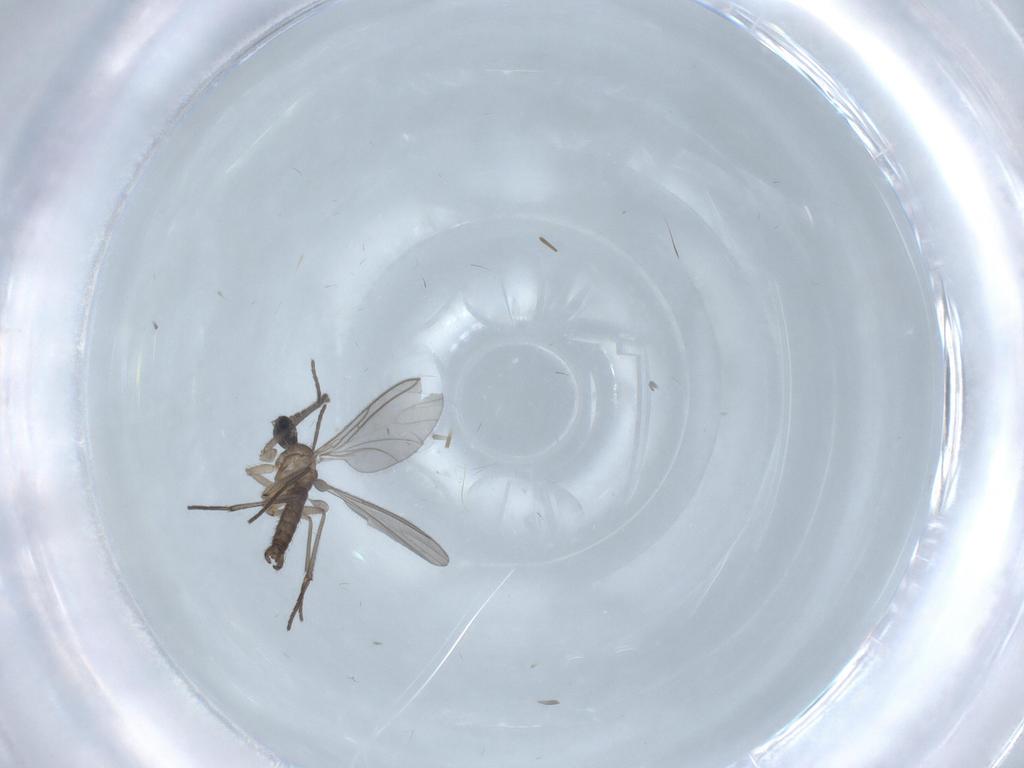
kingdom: Animalia
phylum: Arthropoda
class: Insecta
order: Diptera
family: Sciaridae
